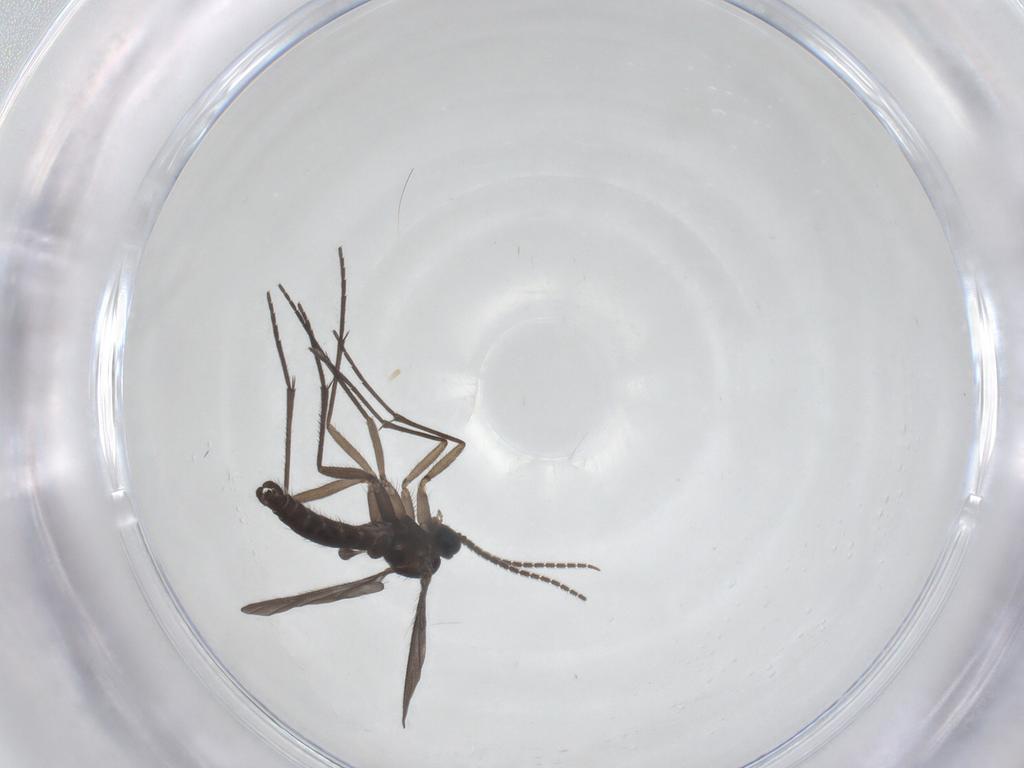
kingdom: Animalia
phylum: Arthropoda
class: Insecta
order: Diptera
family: Sciaridae
